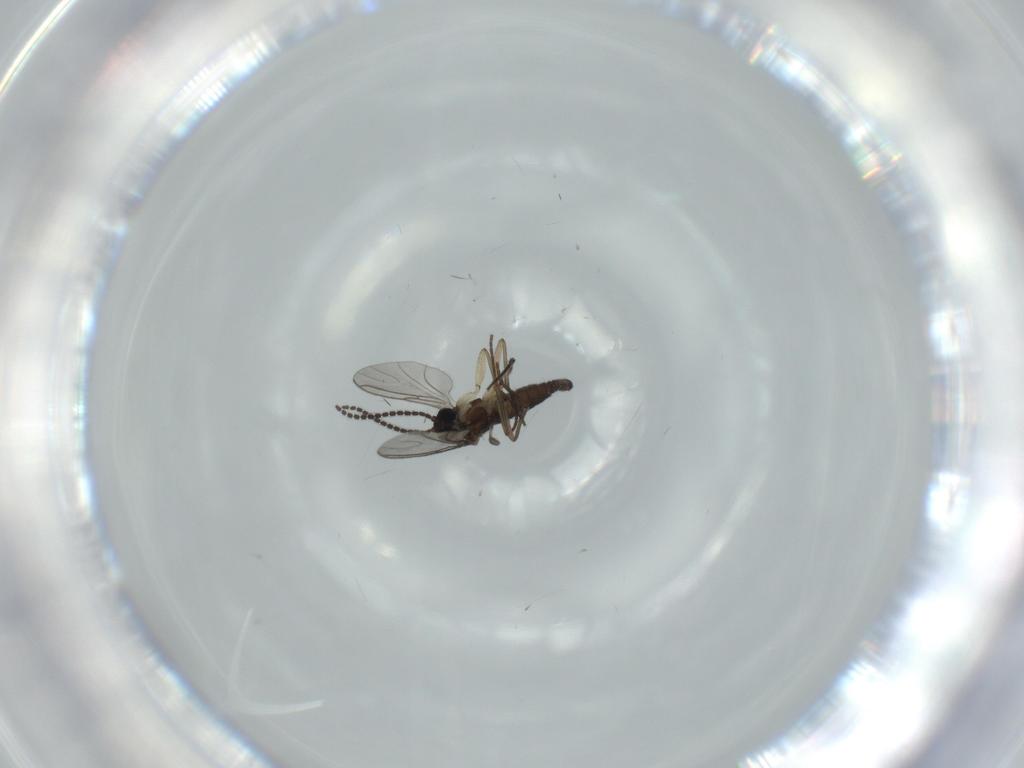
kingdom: Animalia
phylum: Arthropoda
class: Insecta
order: Diptera
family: Sciaridae
